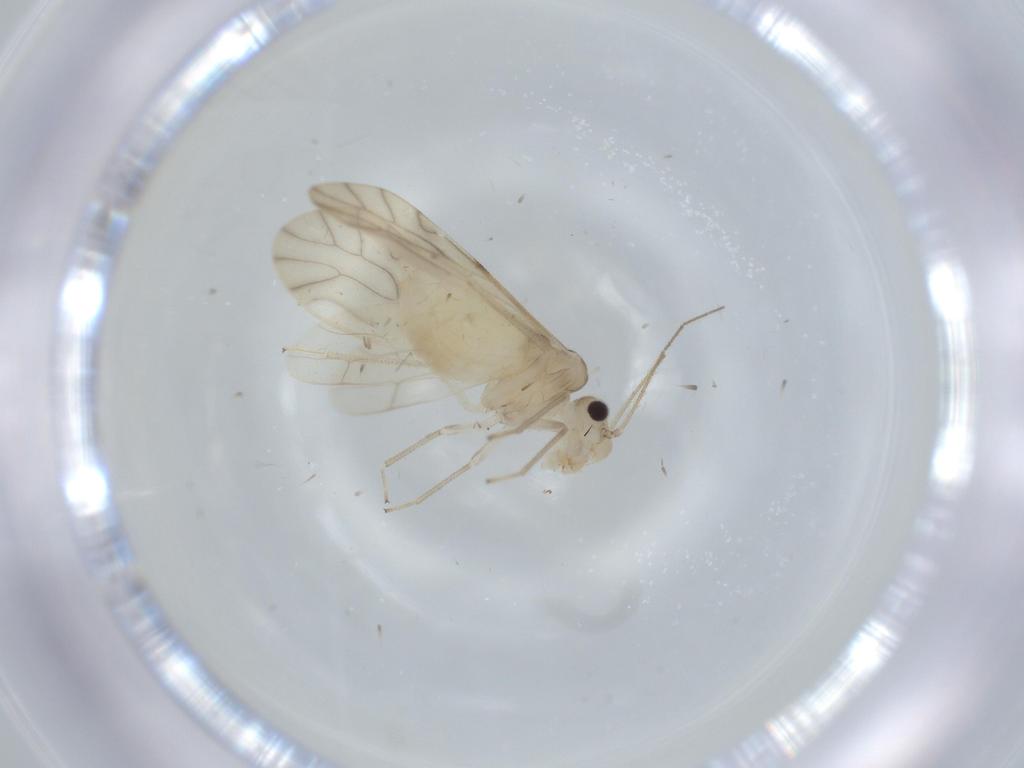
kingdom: Animalia
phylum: Arthropoda
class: Insecta
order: Psocodea
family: Caeciliusidae
